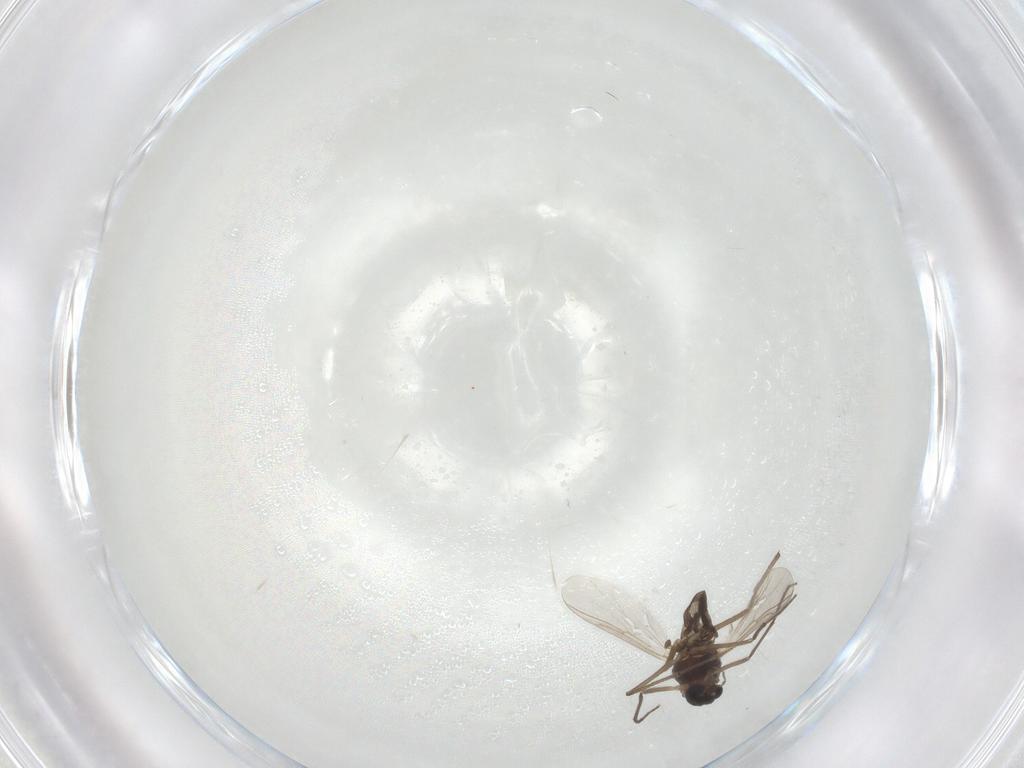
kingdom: Animalia
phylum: Arthropoda
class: Insecta
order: Diptera
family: Chironomidae
